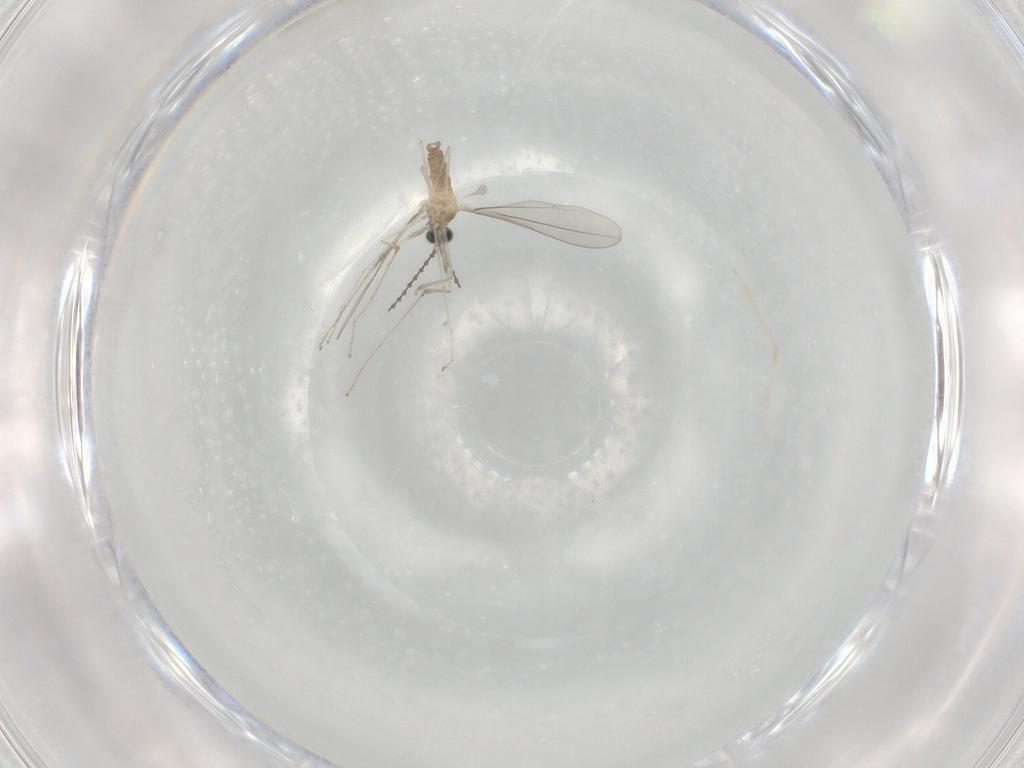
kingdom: Animalia
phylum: Arthropoda
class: Insecta
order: Diptera
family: Cecidomyiidae
